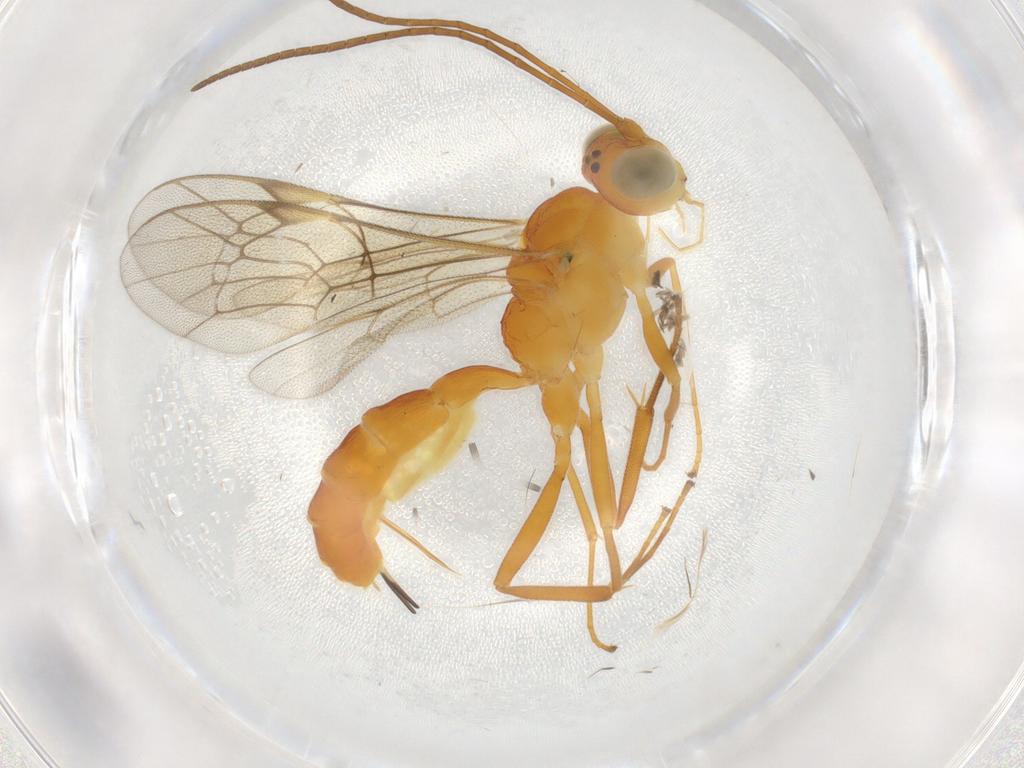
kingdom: Animalia
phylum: Arthropoda
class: Insecta
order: Hymenoptera
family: Ichneumonidae
